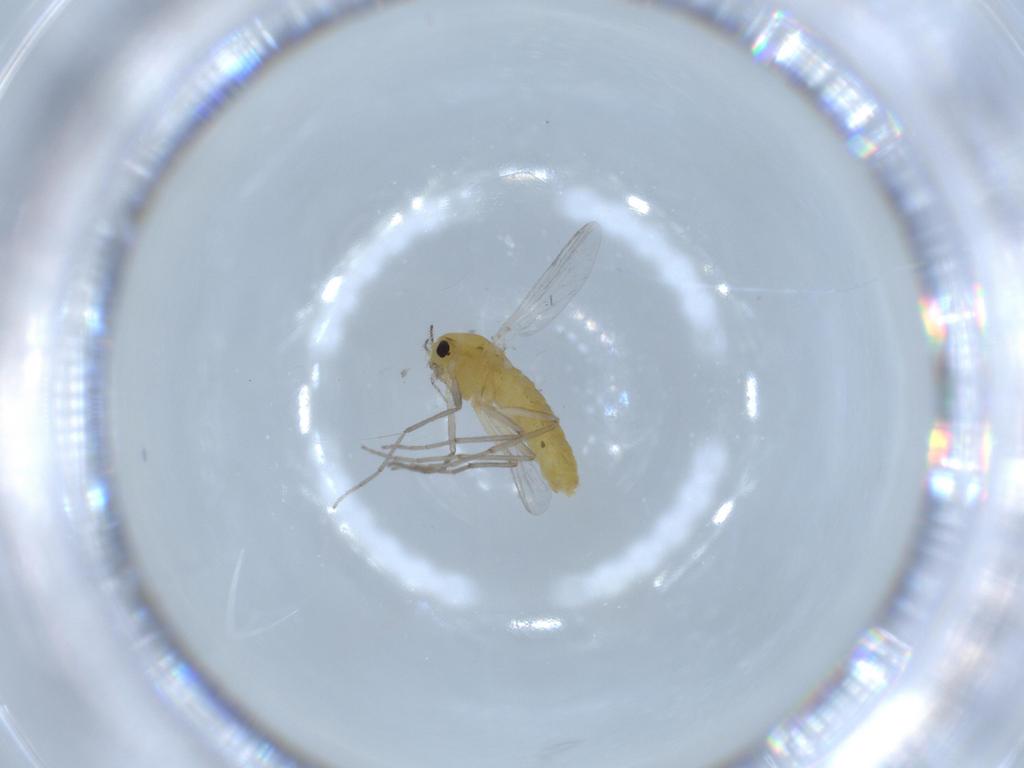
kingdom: Animalia
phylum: Arthropoda
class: Insecta
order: Diptera
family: Chironomidae
